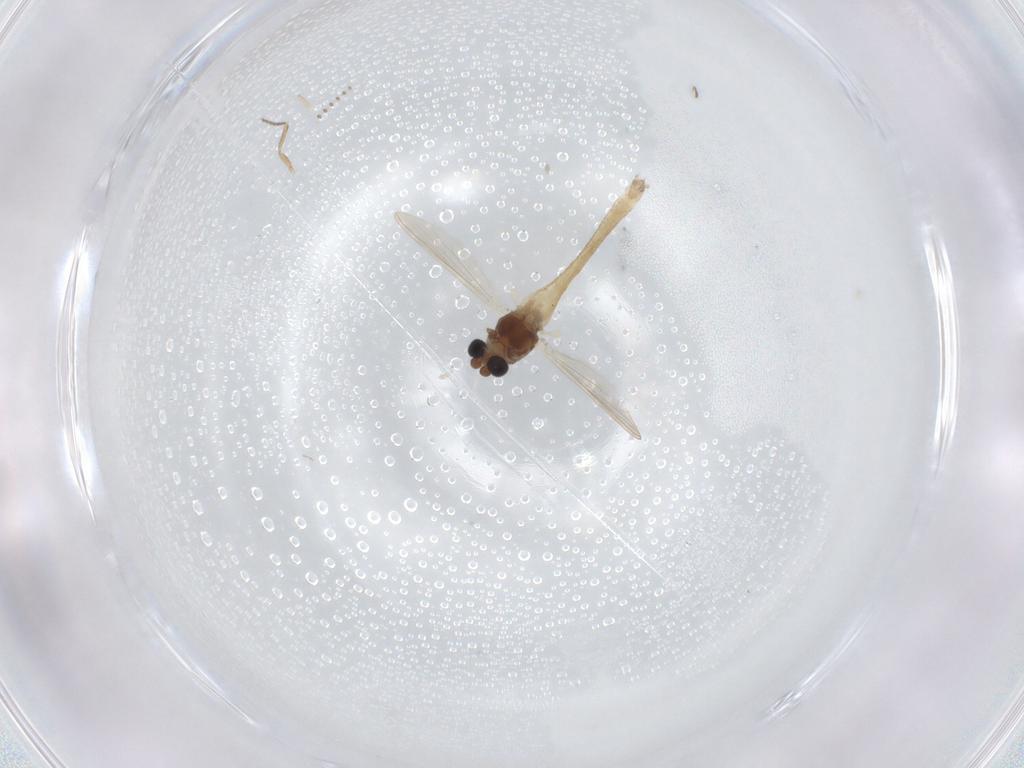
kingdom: Animalia
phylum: Arthropoda
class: Insecta
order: Diptera
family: Chironomidae
